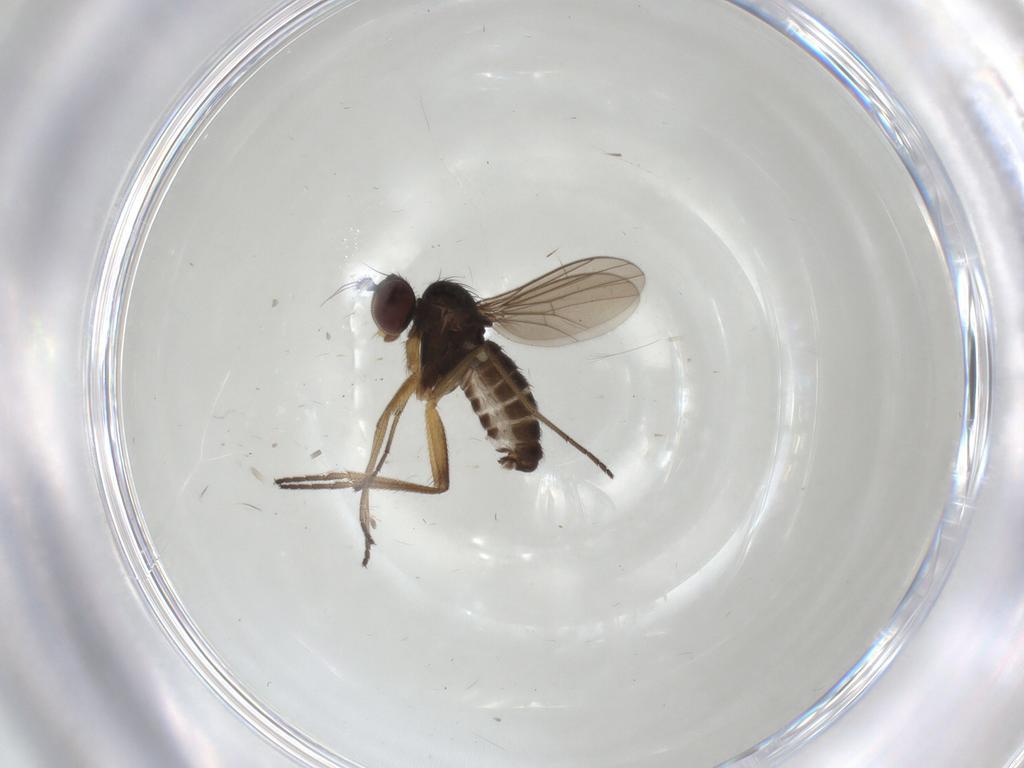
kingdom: Animalia
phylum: Arthropoda
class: Insecta
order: Diptera
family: Dolichopodidae
